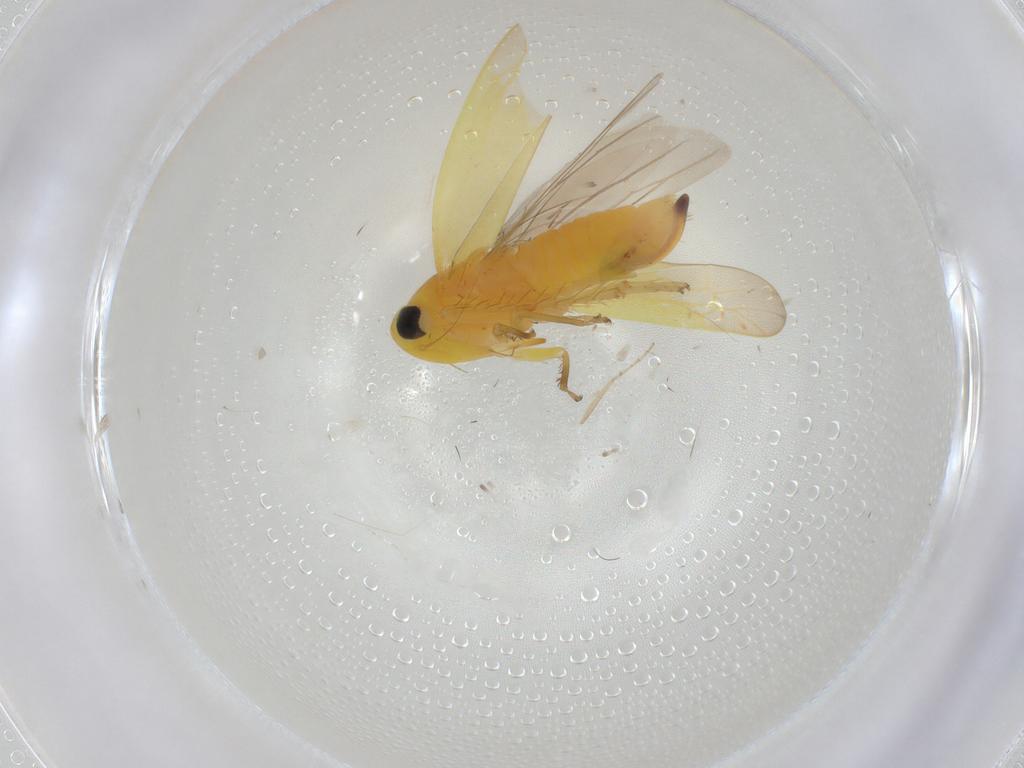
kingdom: Animalia
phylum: Arthropoda
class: Insecta
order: Hemiptera
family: Cicadellidae
